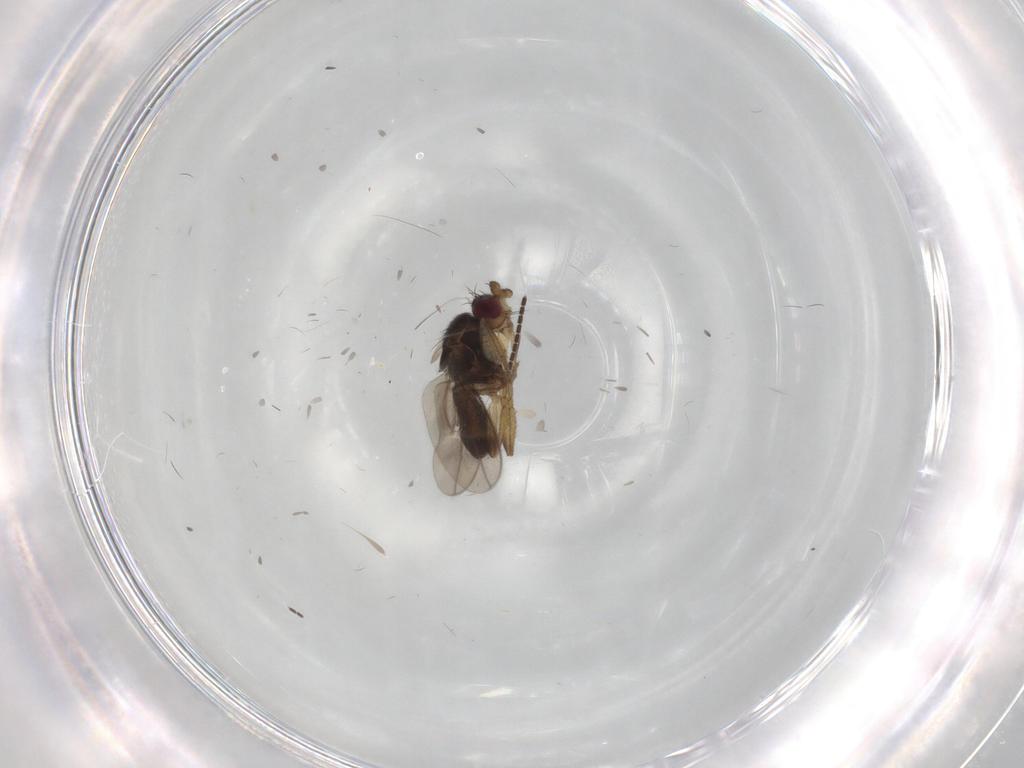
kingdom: Animalia
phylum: Arthropoda
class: Insecta
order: Diptera
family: Sphaeroceridae
